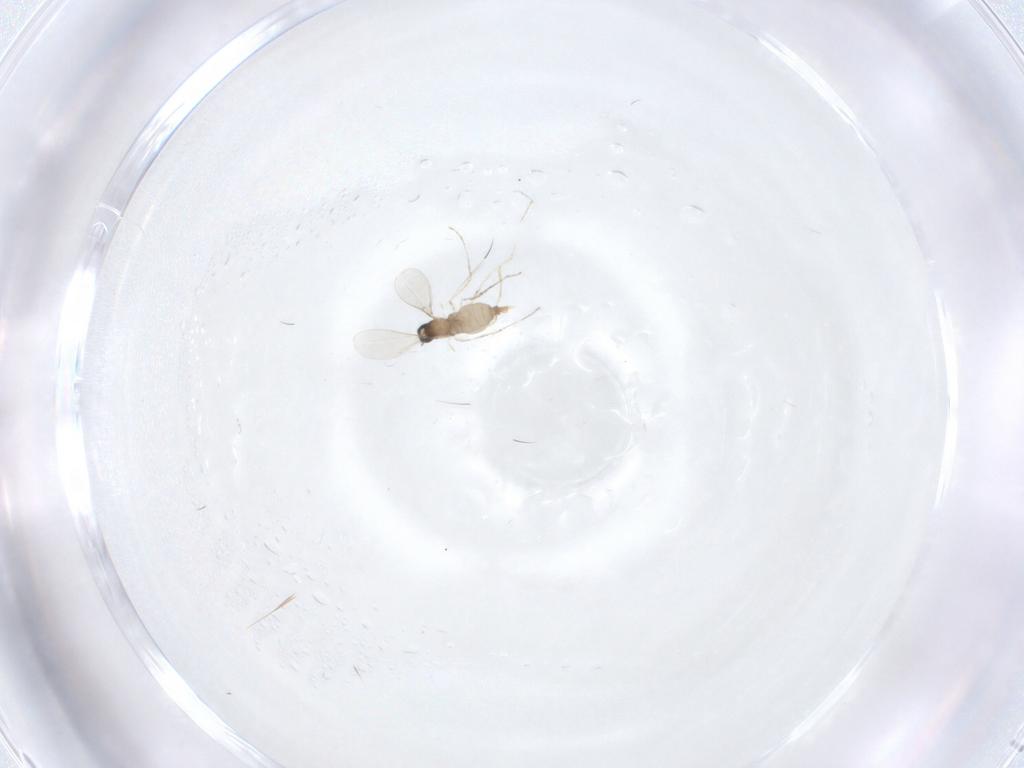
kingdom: Animalia
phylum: Arthropoda
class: Insecta
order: Diptera
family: Cecidomyiidae
